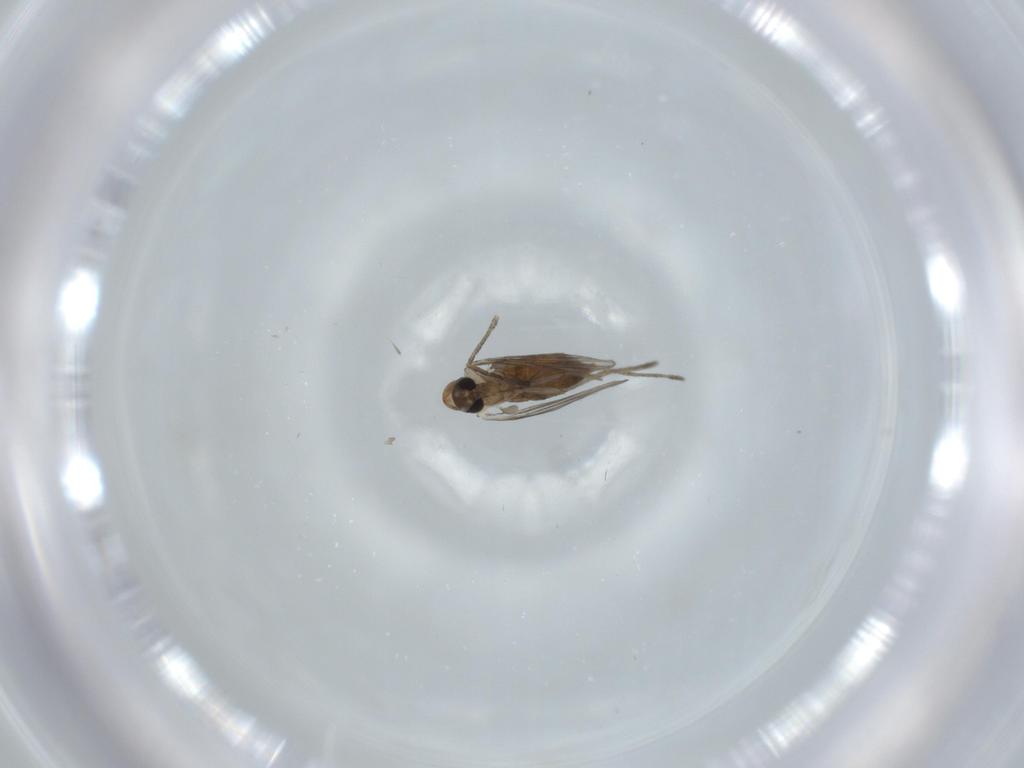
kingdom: Animalia
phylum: Arthropoda
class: Insecta
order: Diptera
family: Psychodidae
